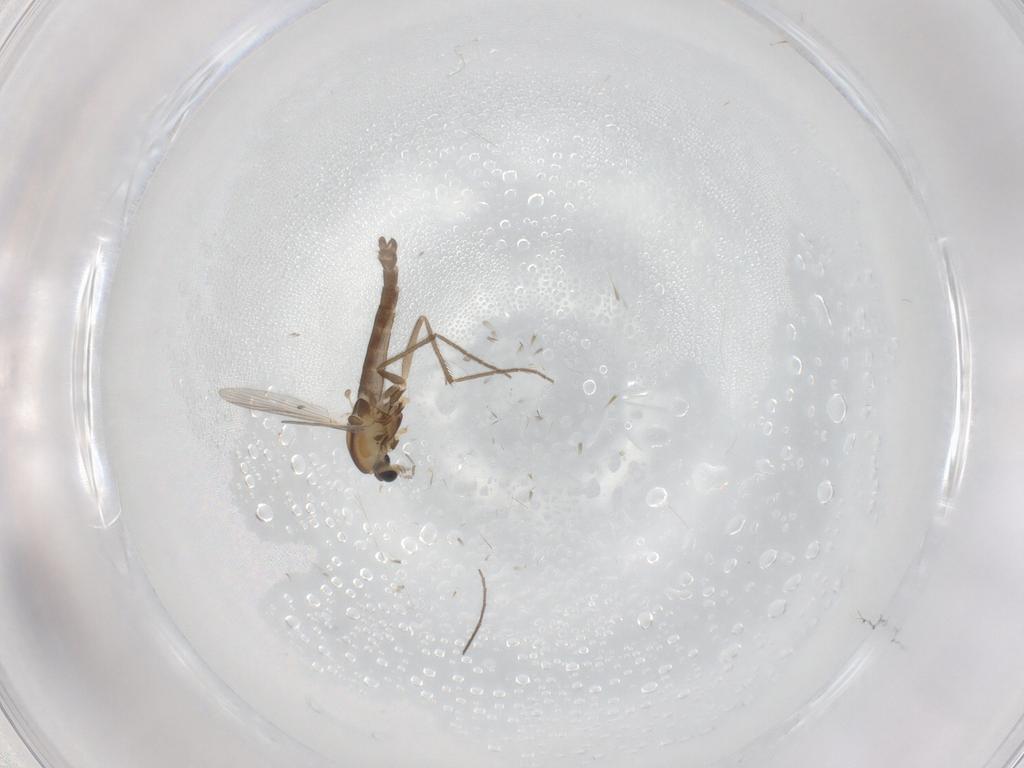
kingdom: Animalia
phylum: Arthropoda
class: Insecta
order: Diptera
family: Chironomidae
